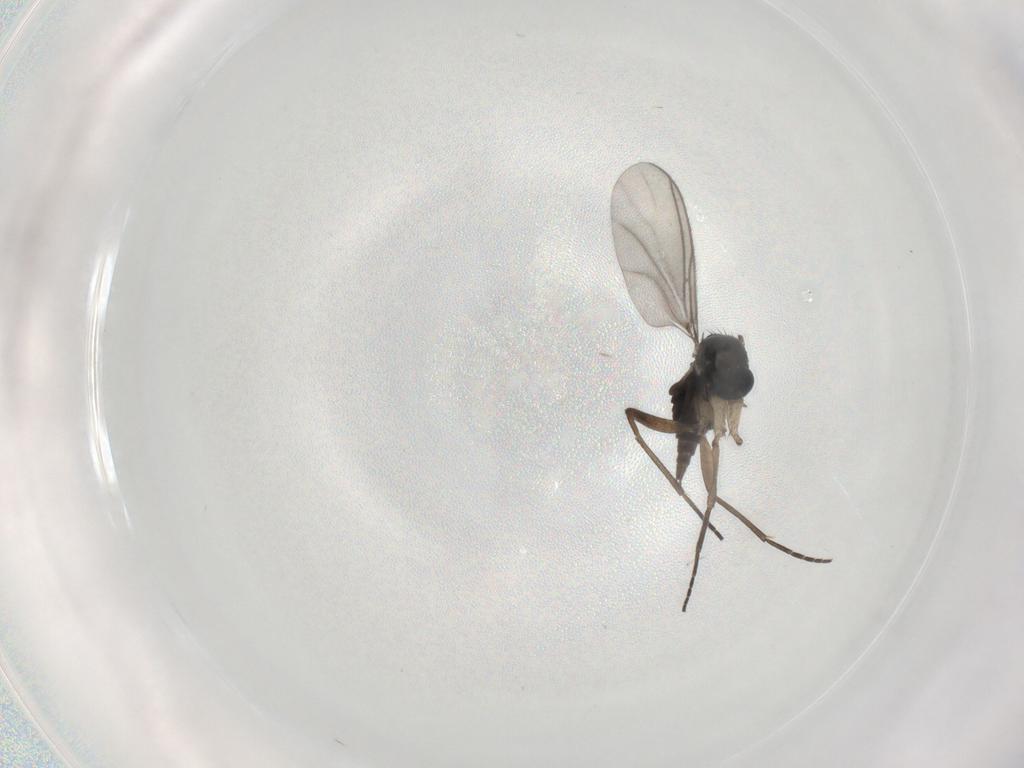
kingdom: Animalia
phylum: Arthropoda
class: Insecta
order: Diptera
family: Sciaridae
